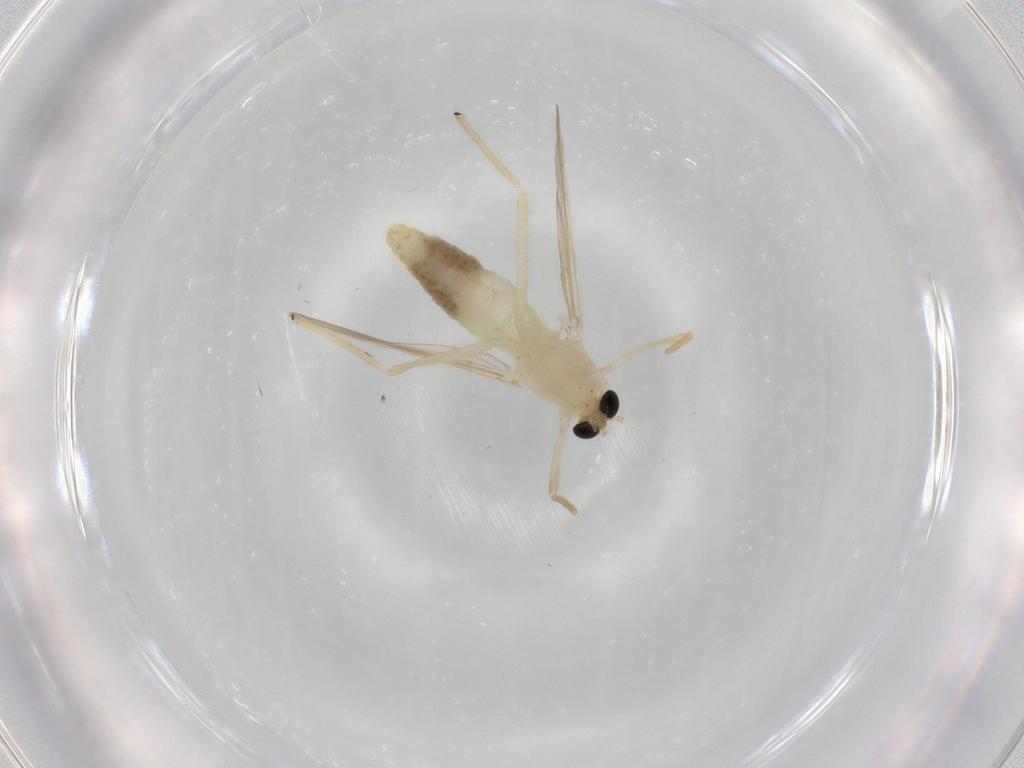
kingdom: Animalia
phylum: Arthropoda
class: Insecta
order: Diptera
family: Chironomidae
